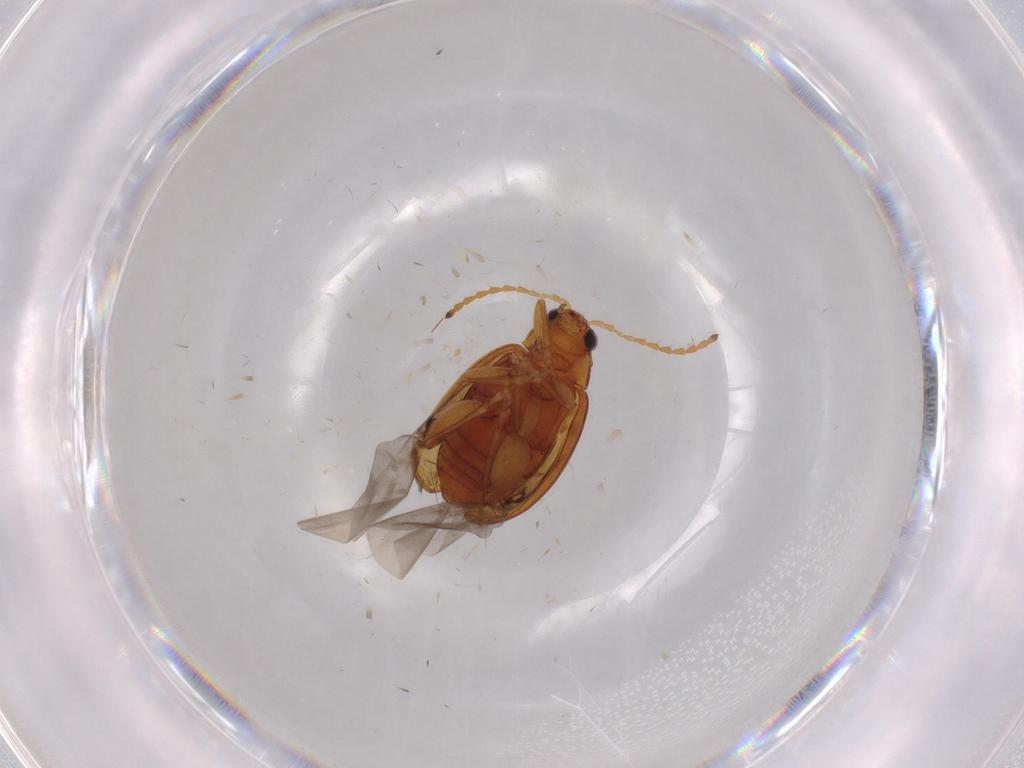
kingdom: Animalia
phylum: Arthropoda
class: Insecta
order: Coleoptera
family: Chrysomelidae
